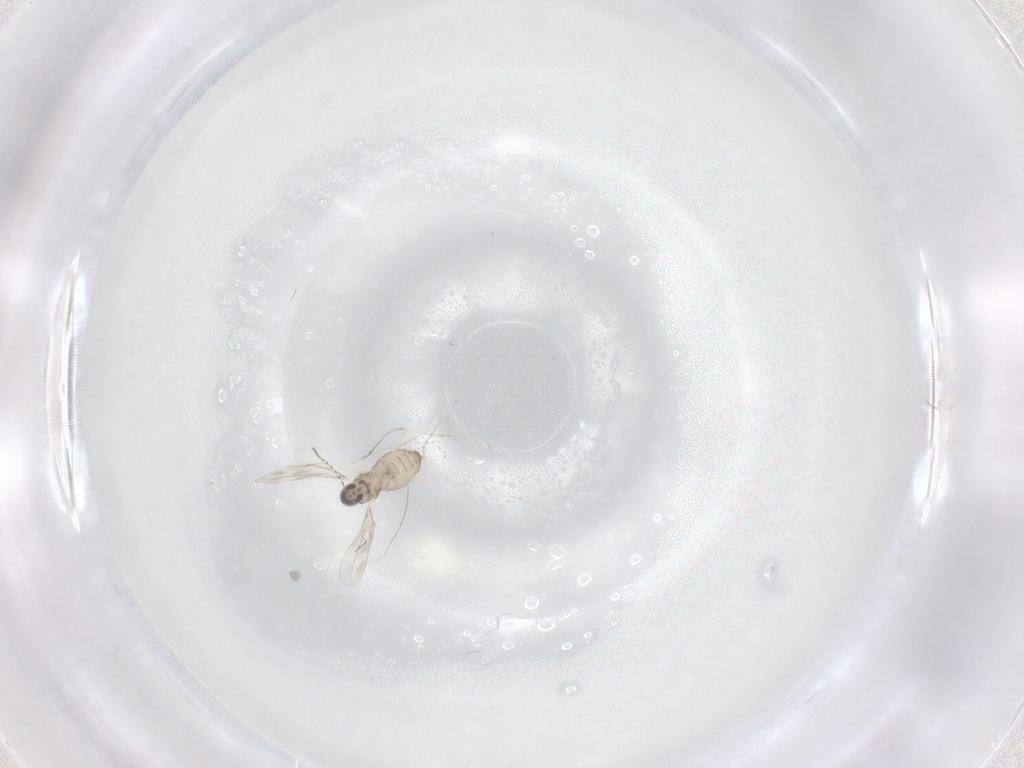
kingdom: Animalia
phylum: Arthropoda
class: Insecta
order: Diptera
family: Cecidomyiidae
